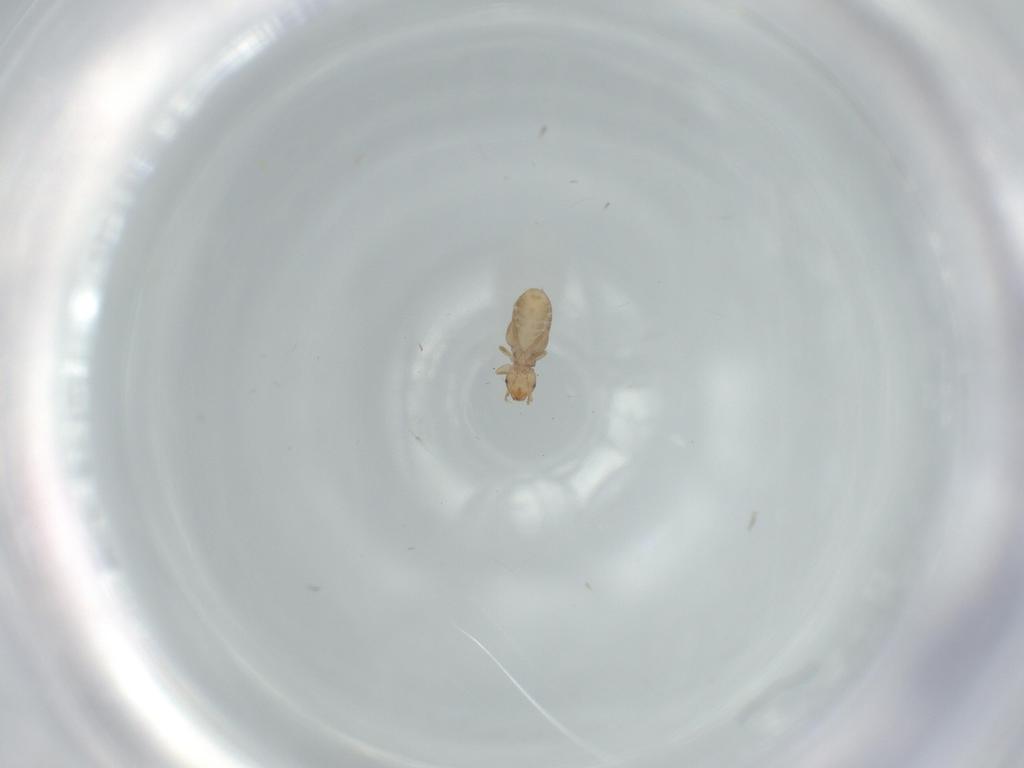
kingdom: Animalia
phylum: Arthropoda
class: Insecta
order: Psocodea
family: Liposcelididae
